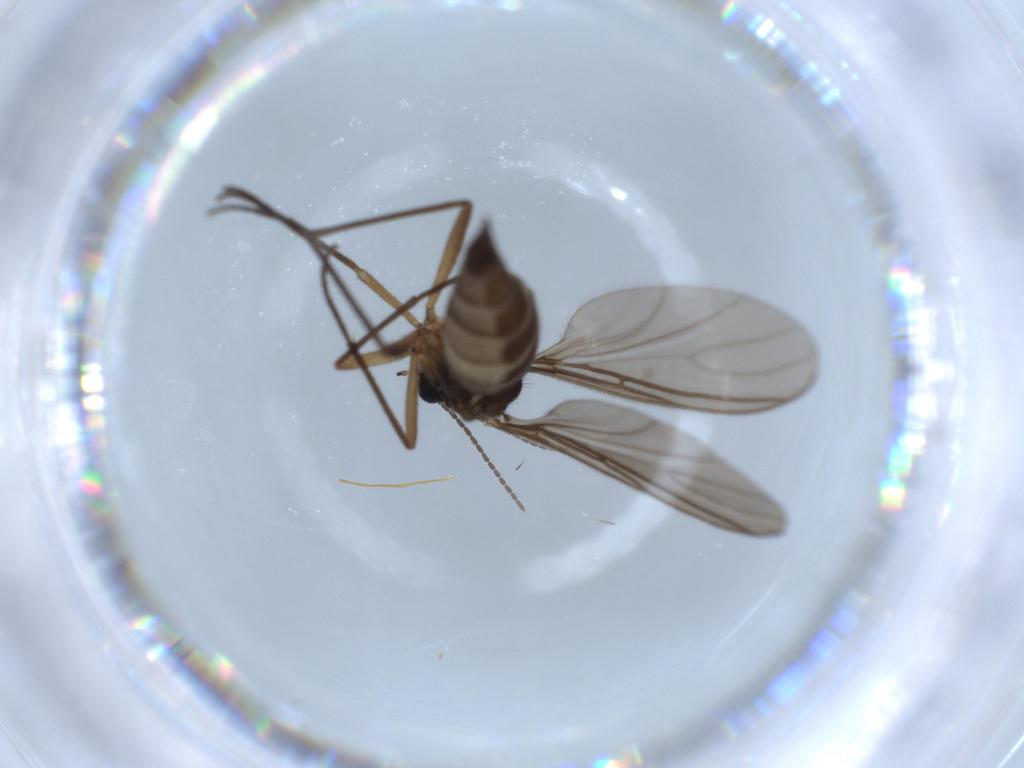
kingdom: Animalia
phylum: Arthropoda
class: Insecta
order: Diptera
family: Sciaridae
